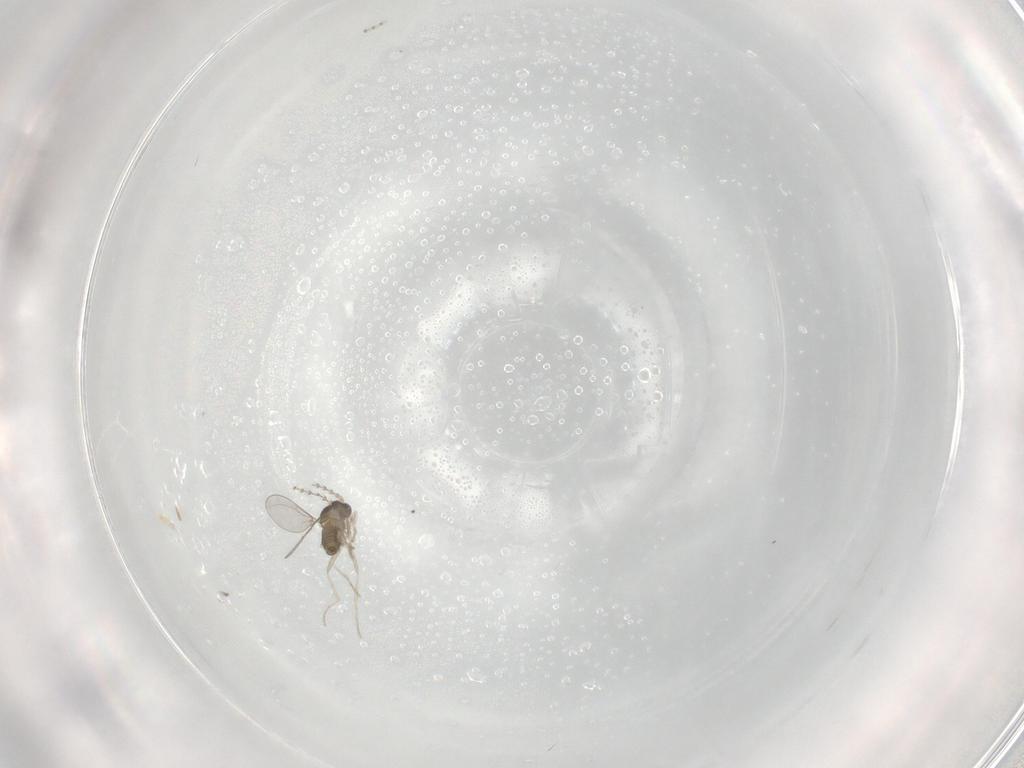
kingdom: Animalia
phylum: Arthropoda
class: Insecta
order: Diptera
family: Cecidomyiidae
